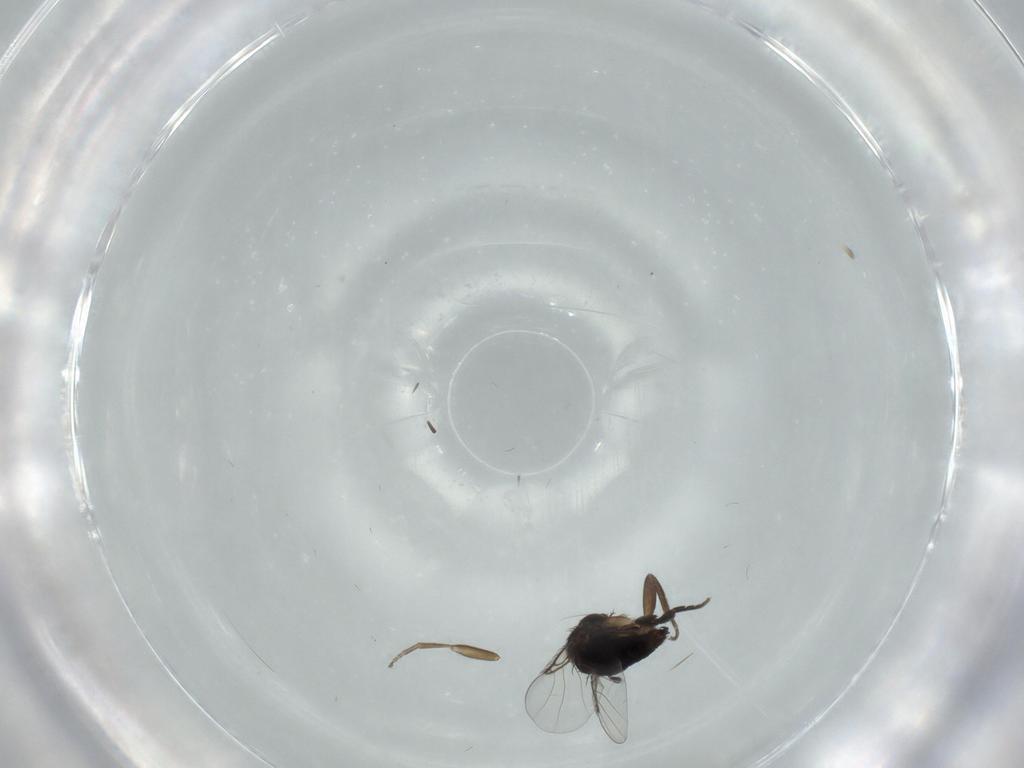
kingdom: Animalia
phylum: Arthropoda
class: Insecta
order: Diptera
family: Phoridae
